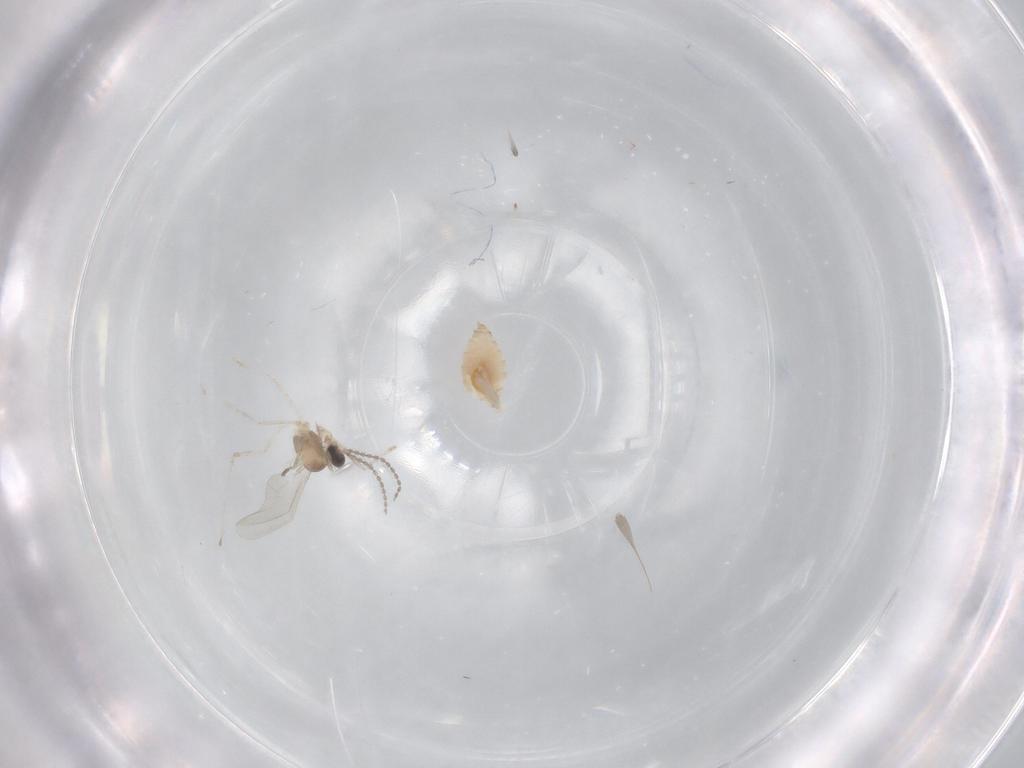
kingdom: Animalia
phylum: Arthropoda
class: Insecta
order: Diptera
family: Cecidomyiidae
